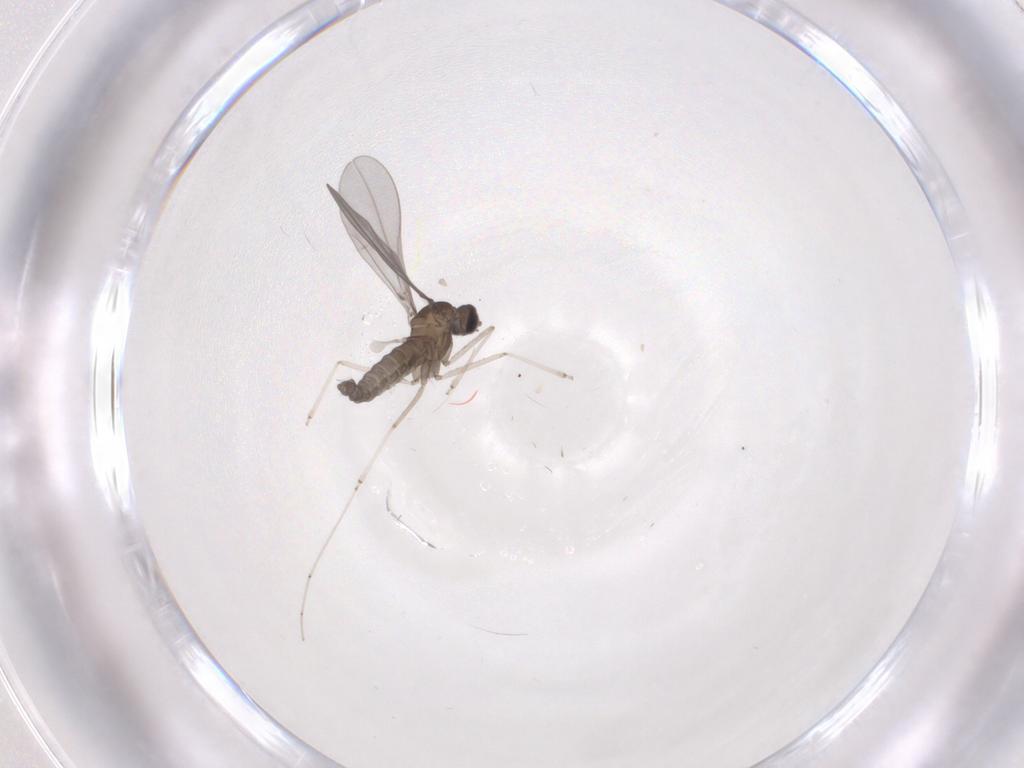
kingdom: Animalia
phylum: Arthropoda
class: Insecta
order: Diptera
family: Cecidomyiidae
